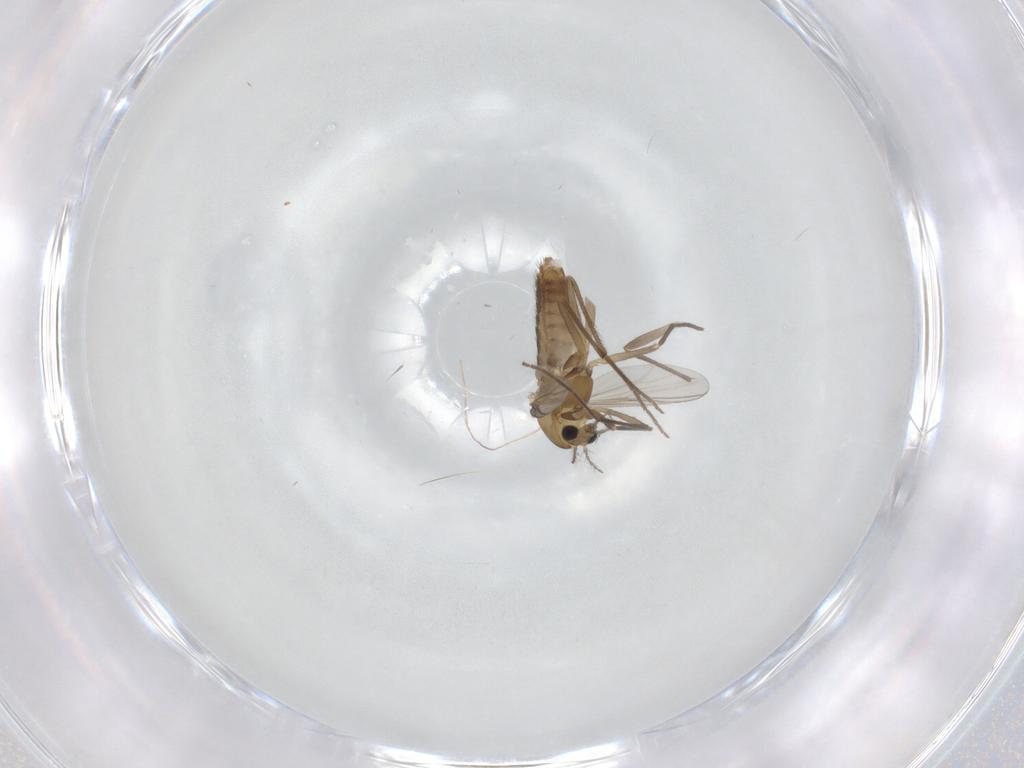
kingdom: Animalia
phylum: Arthropoda
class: Insecta
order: Diptera
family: Chironomidae
